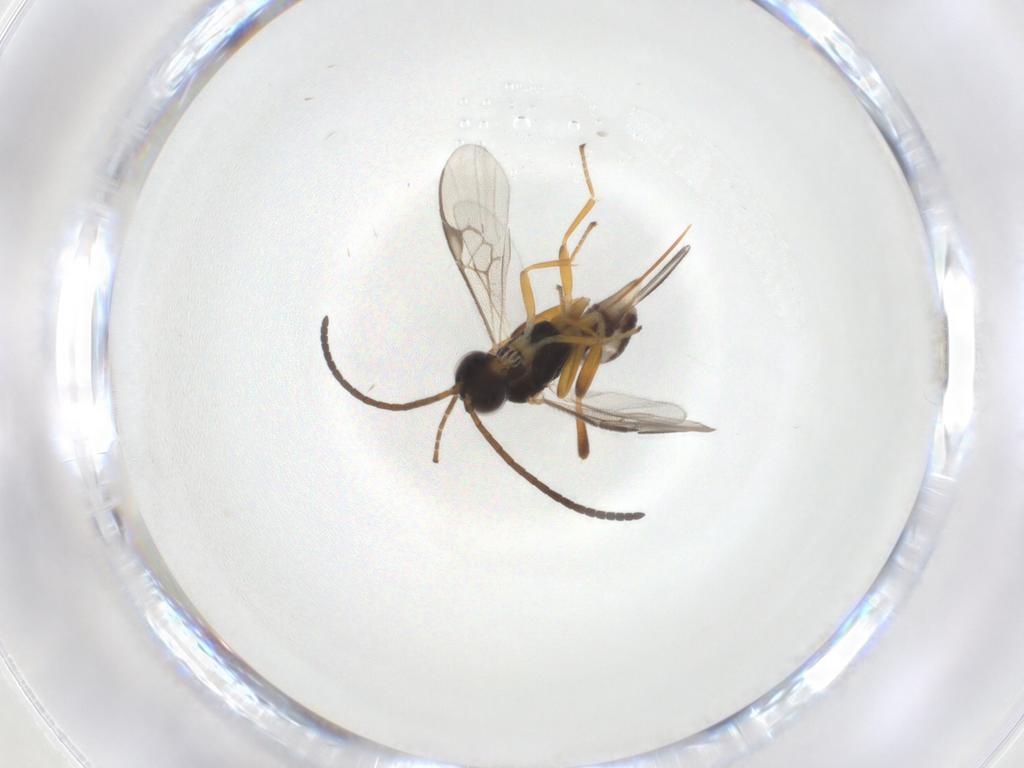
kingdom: Animalia
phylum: Arthropoda
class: Insecta
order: Hymenoptera
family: Braconidae
